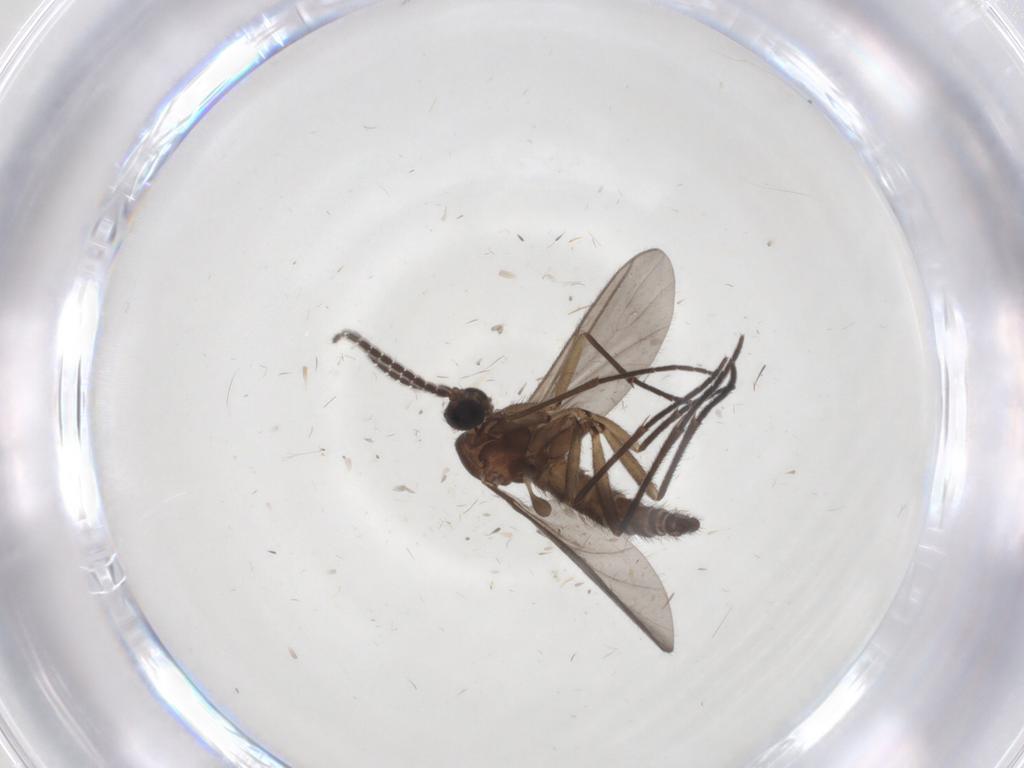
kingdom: Animalia
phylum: Arthropoda
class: Insecta
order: Diptera
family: Sciaridae
